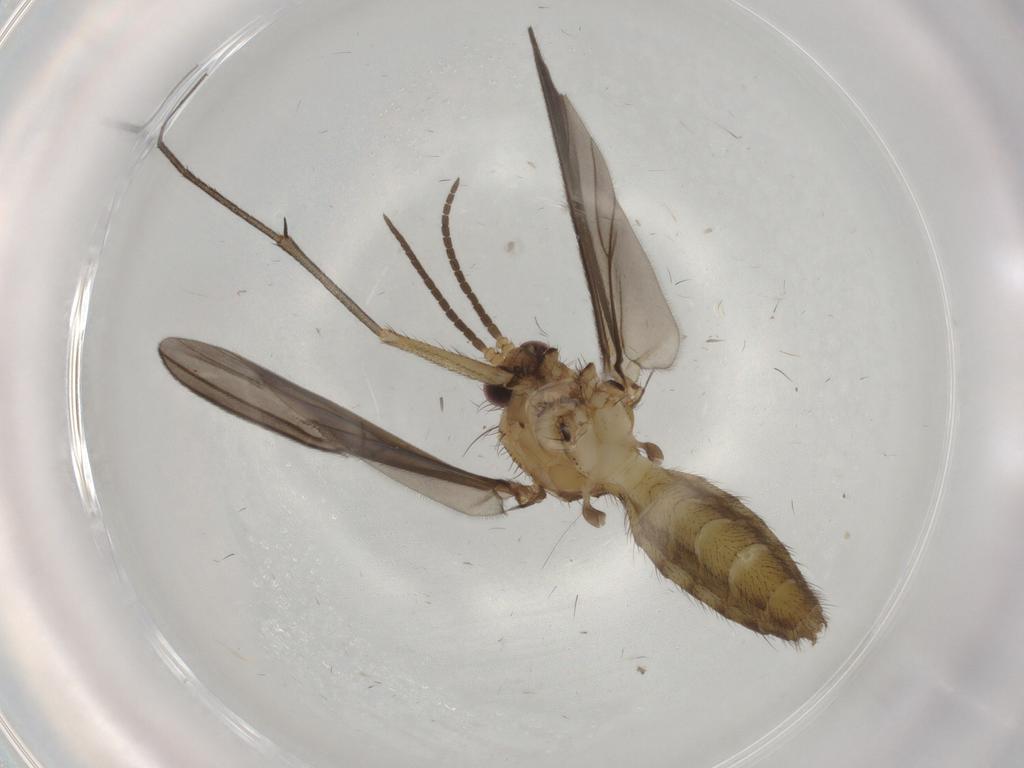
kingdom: Animalia
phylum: Arthropoda
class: Insecta
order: Diptera
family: Mycetophilidae
